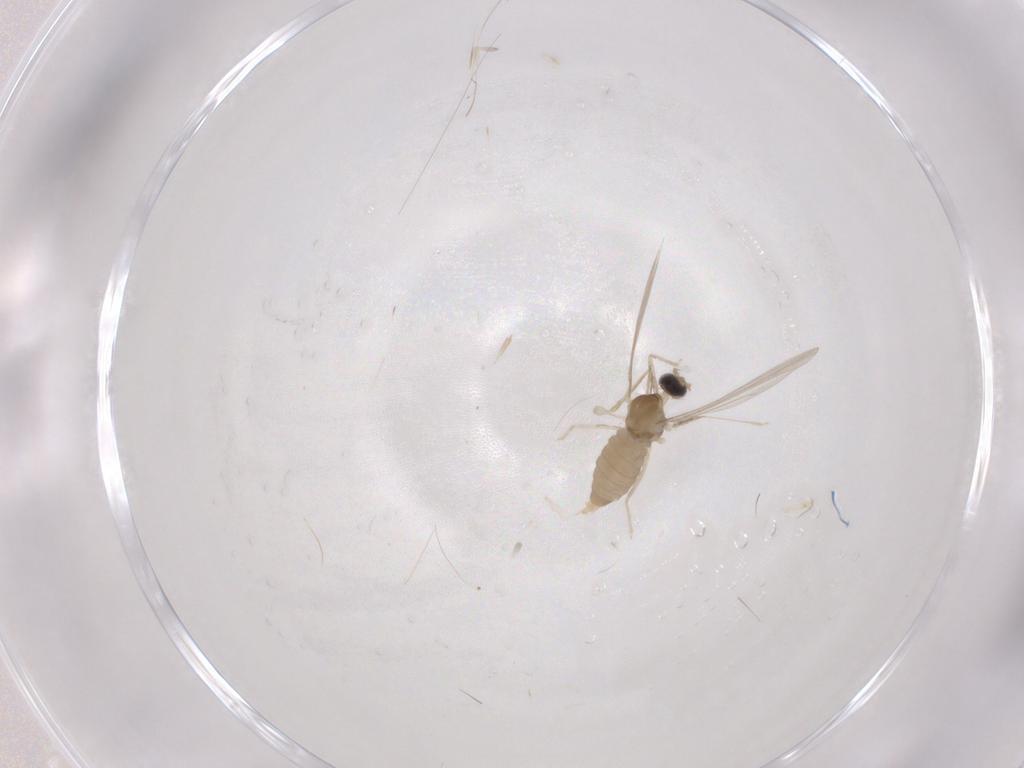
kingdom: Animalia
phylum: Arthropoda
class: Insecta
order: Diptera
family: Cecidomyiidae
